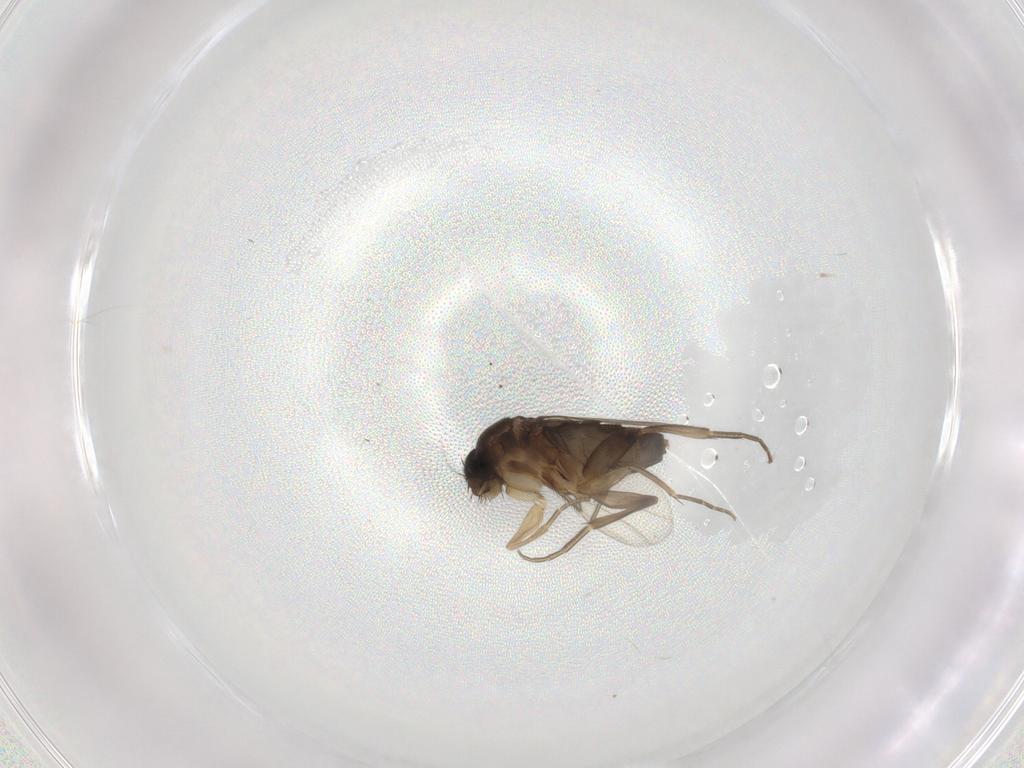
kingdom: Animalia
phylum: Arthropoda
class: Insecta
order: Diptera
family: Phoridae
